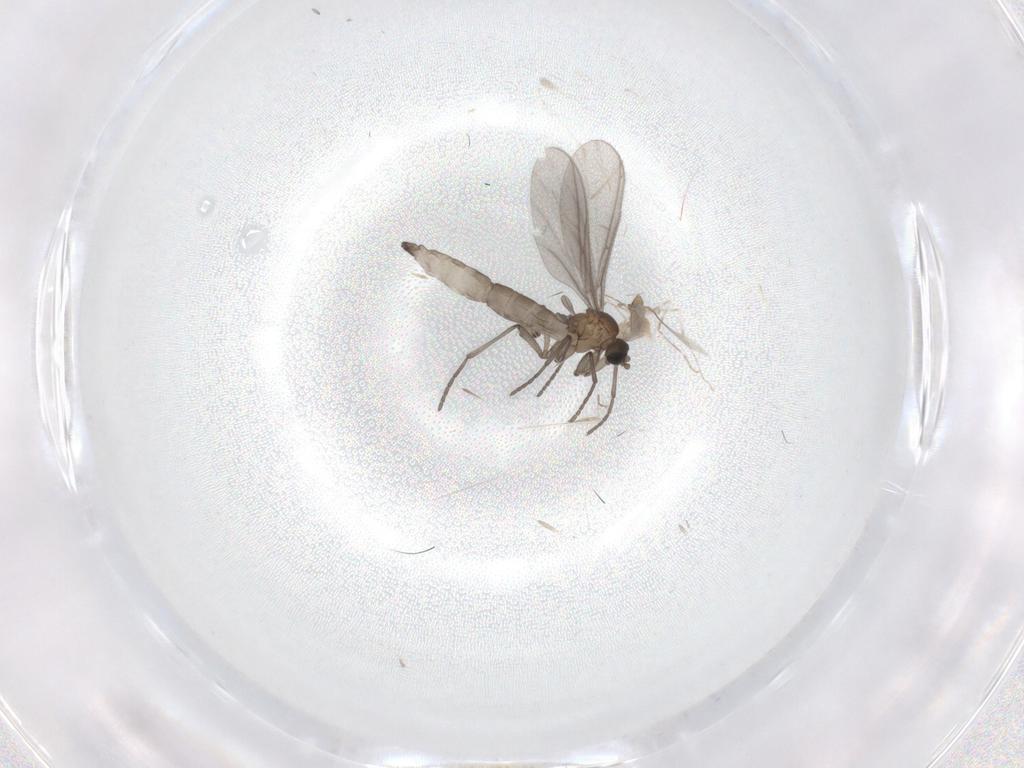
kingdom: Animalia
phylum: Arthropoda
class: Insecta
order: Diptera
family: Sciaridae
